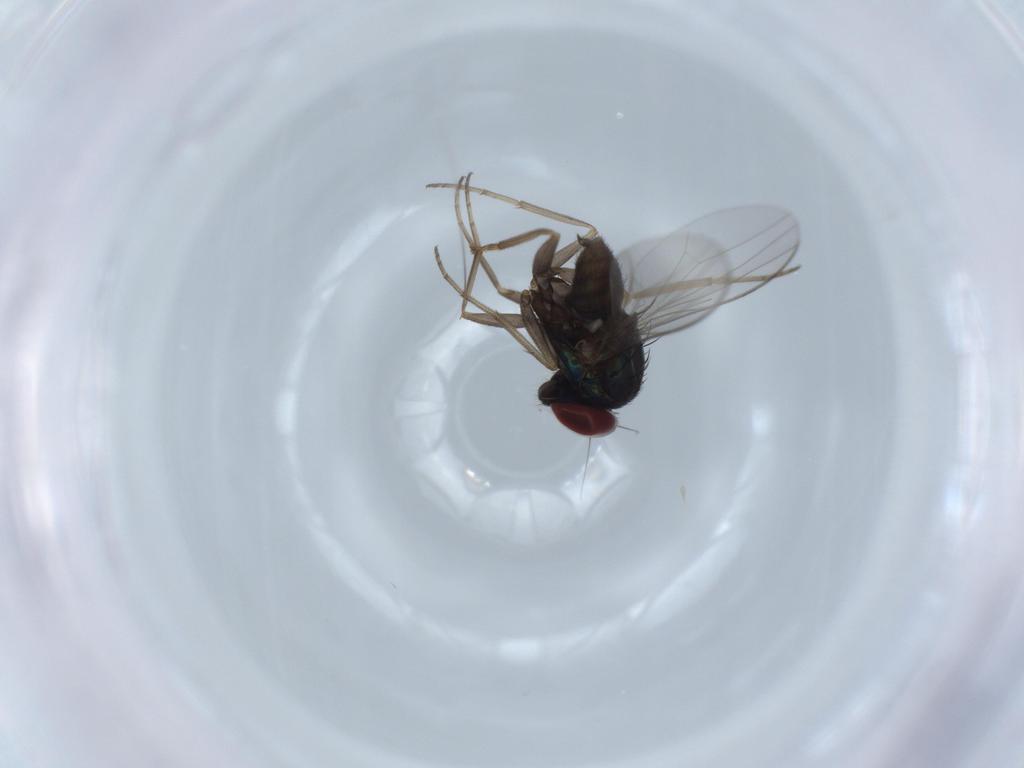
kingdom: Animalia
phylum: Arthropoda
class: Insecta
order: Diptera
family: Dolichopodidae
